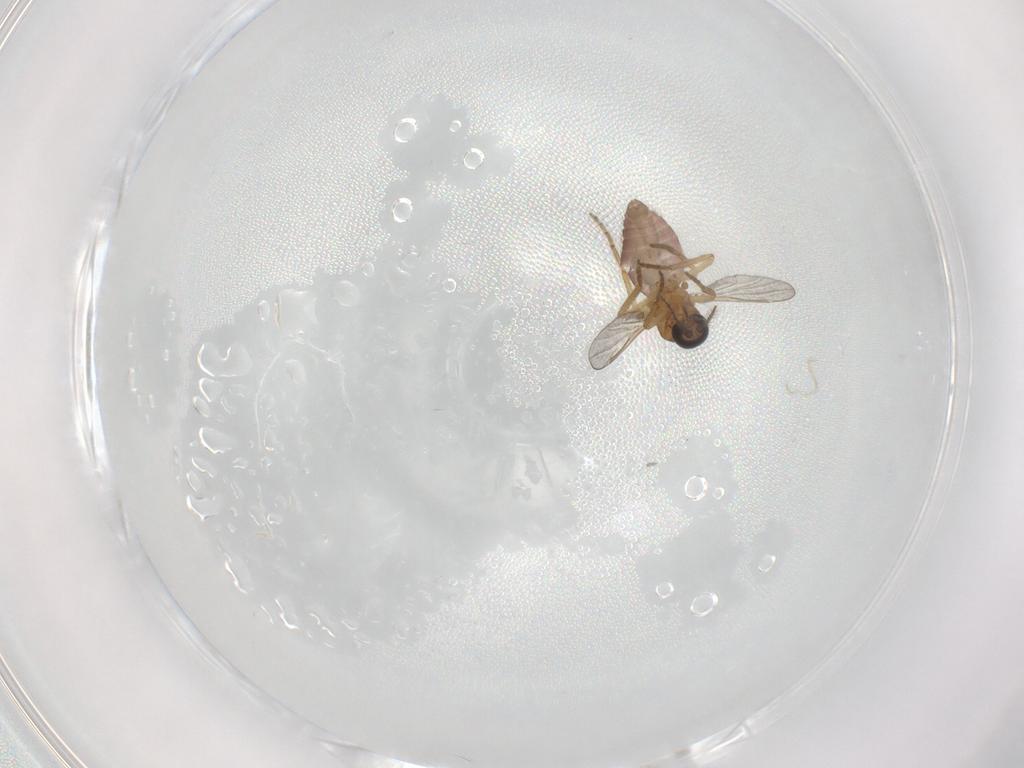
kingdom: Animalia
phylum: Arthropoda
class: Insecta
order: Diptera
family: Ceratopogonidae
